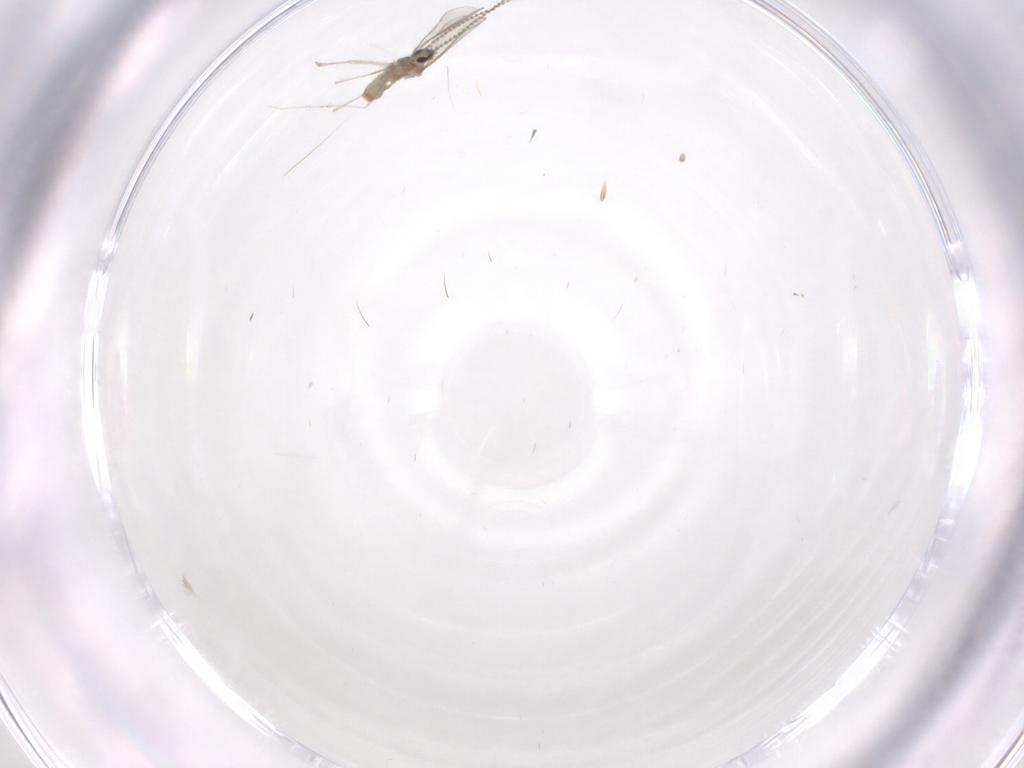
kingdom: Animalia
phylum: Arthropoda
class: Insecta
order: Diptera
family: Cecidomyiidae
